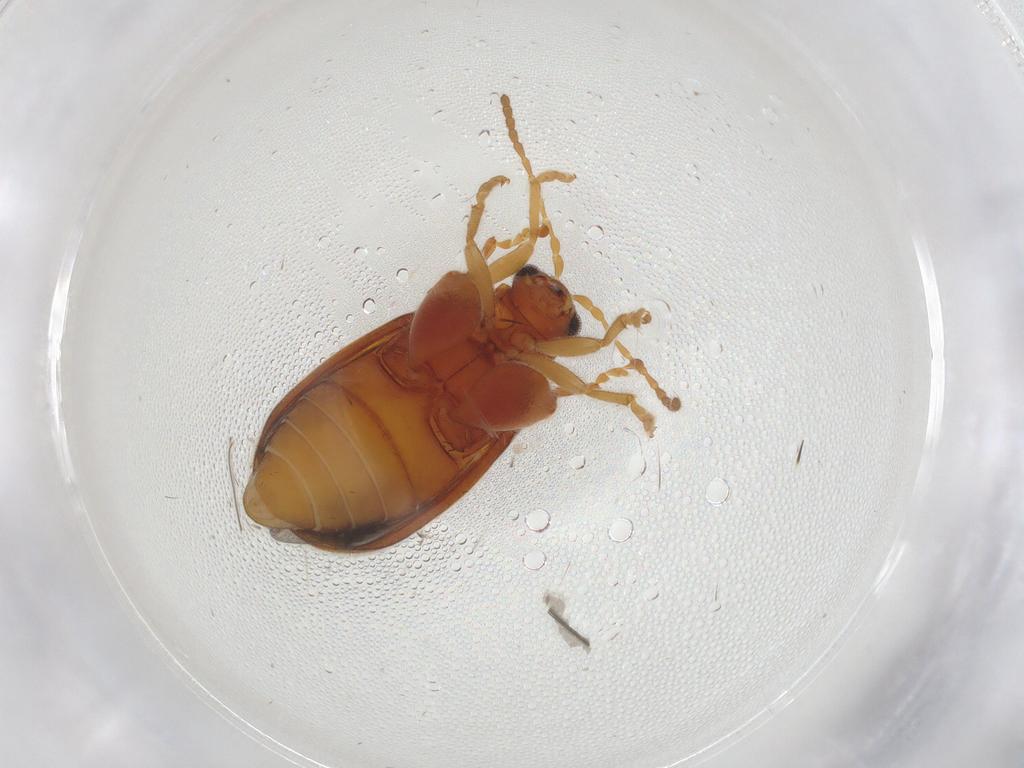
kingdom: Animalia
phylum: Arthropoda
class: Insecta
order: Coleoptera
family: Chrysomelidae
